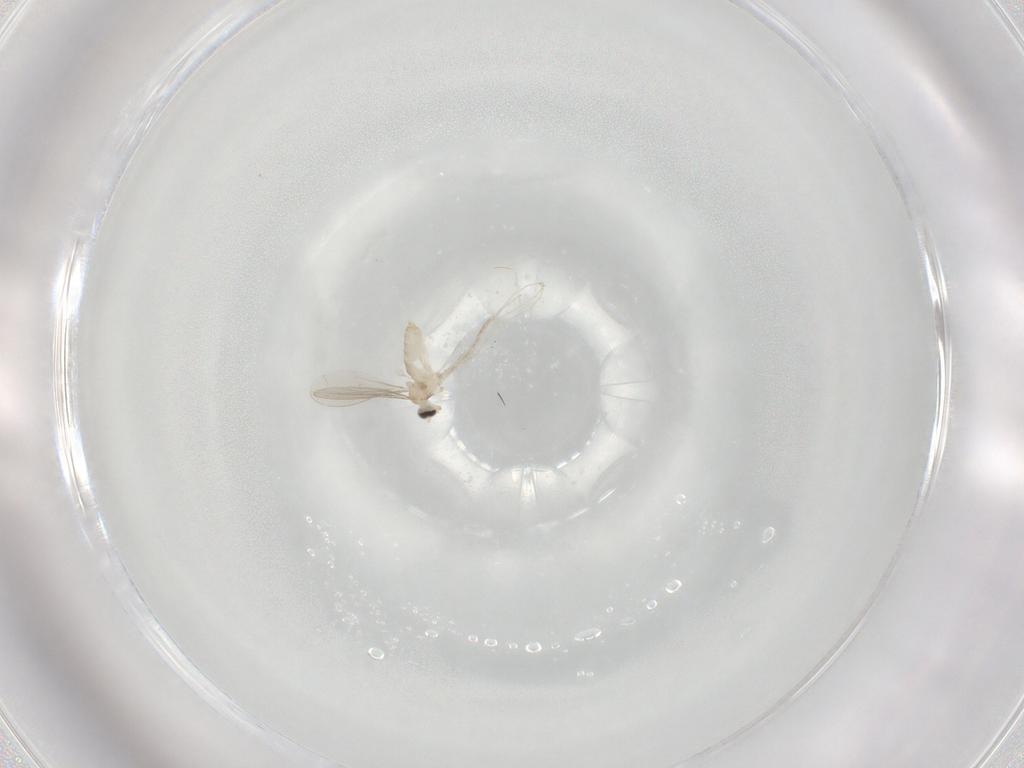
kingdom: Animalia
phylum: Arthropoda
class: Insecta
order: Diptera
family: Cecidomyiidae
